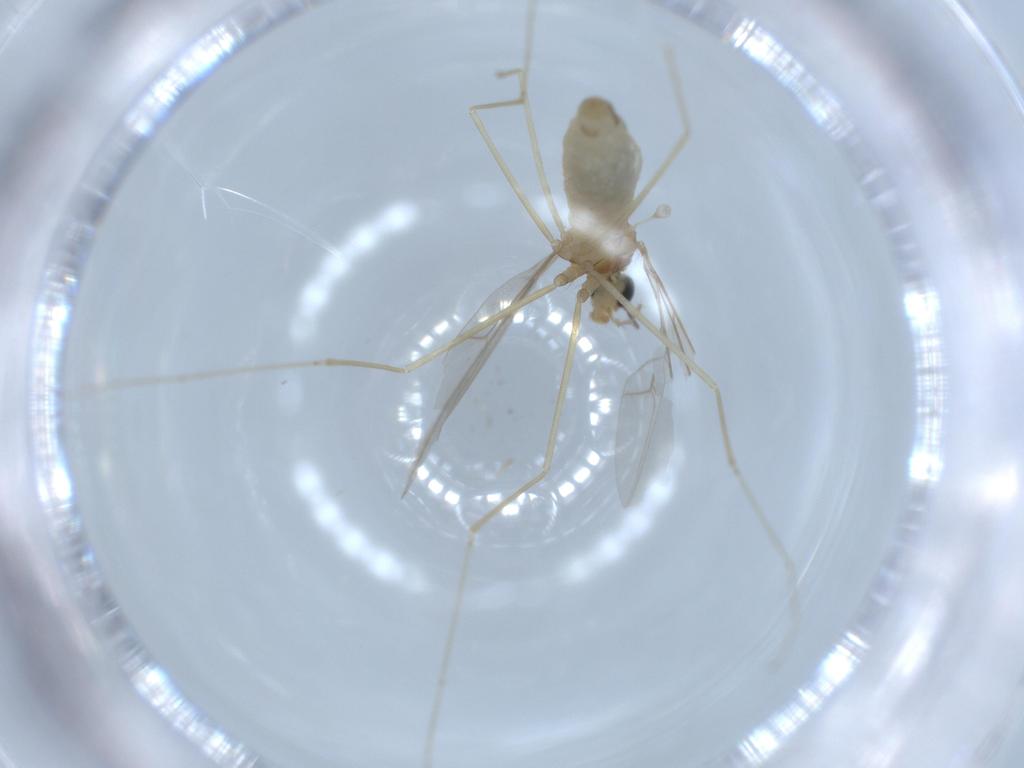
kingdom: Animalia
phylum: Arthropoda
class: Insecta
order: Diptera
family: Cecidomyiidae
